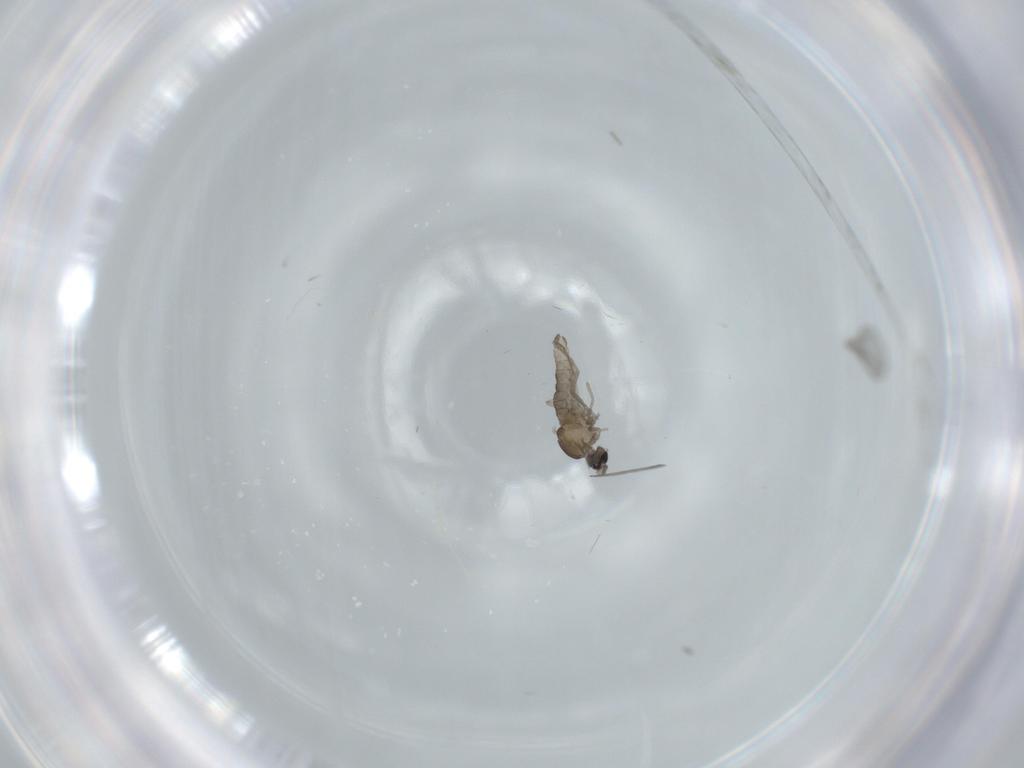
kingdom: Animalia
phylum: Arthropoda
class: Insecta
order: Diptera
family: Cecidomyiidae
